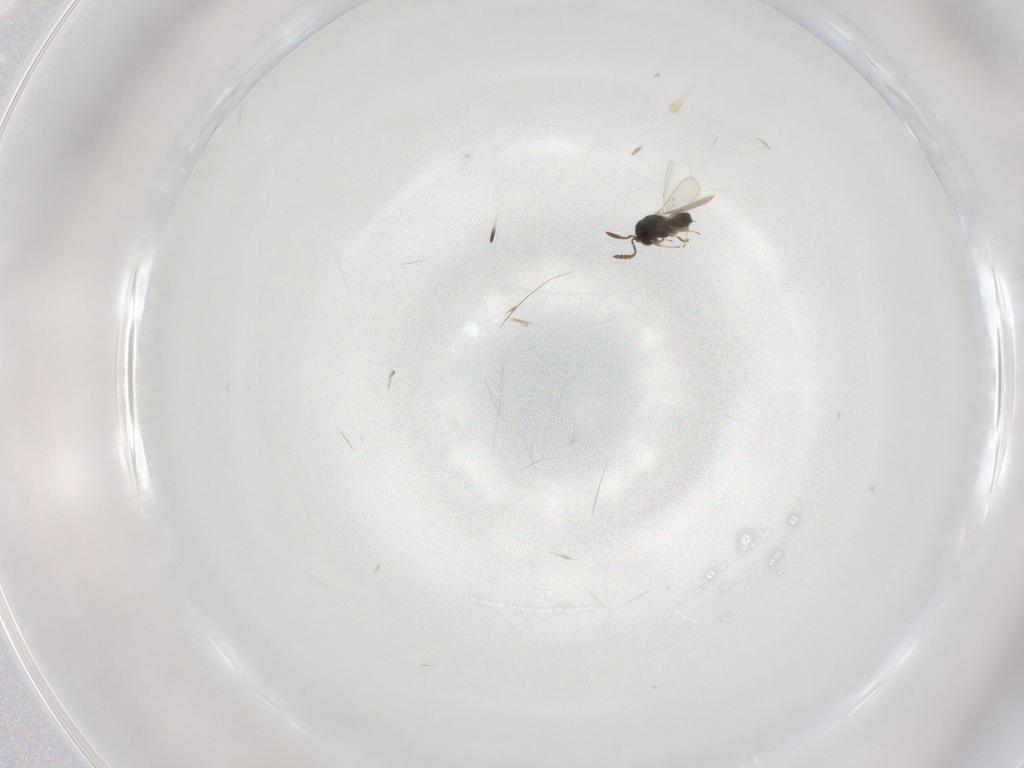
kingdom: Animalia
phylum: Arthropoda
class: Insecta
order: Hymenoptera
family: Scelionidae
